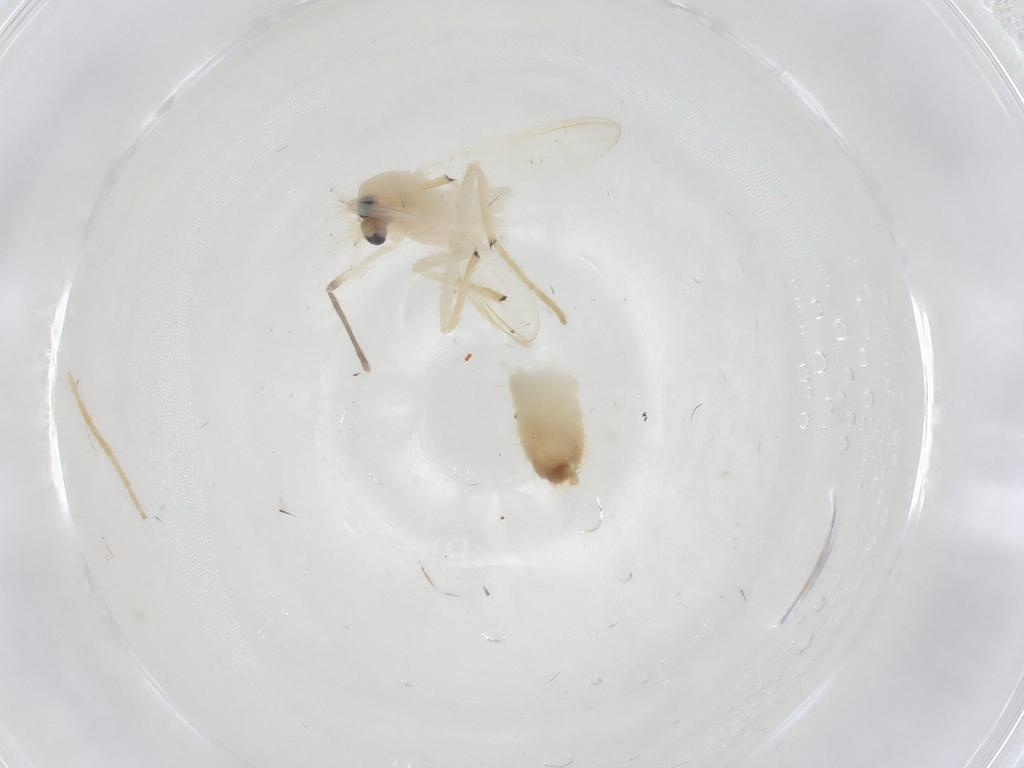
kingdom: Animalia
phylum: Arthropoda
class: Insecta
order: Diptera
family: Chironomidae
